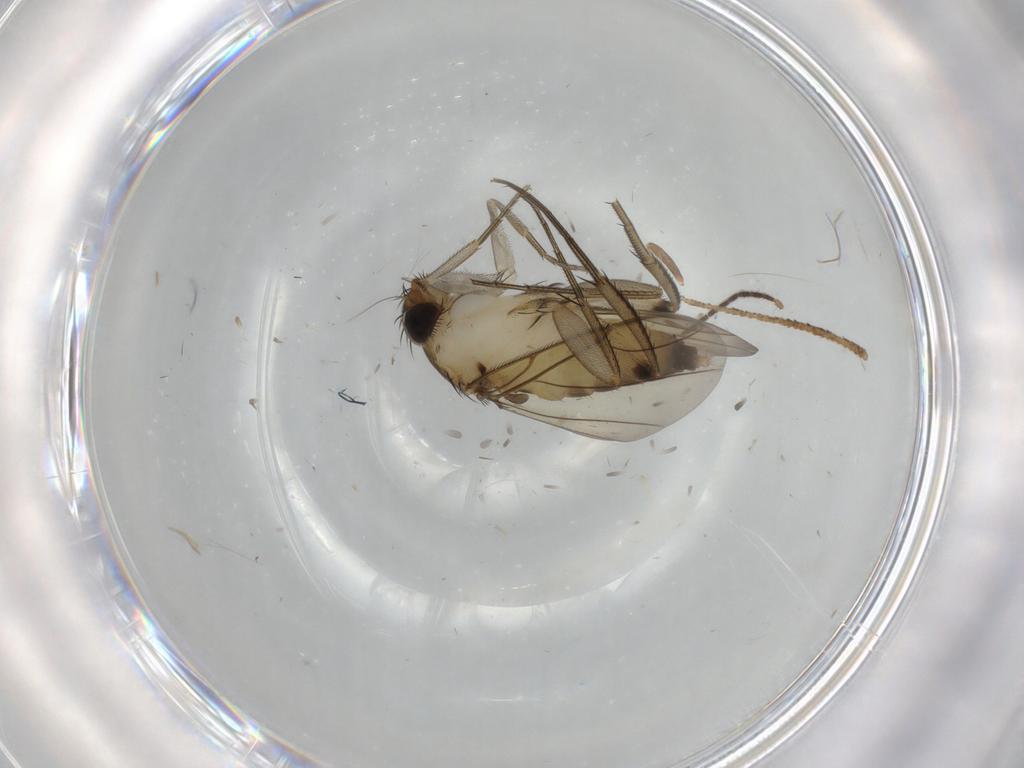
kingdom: Animalia
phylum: Arthropoda
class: Insecta
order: Diptera
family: Phoridae
